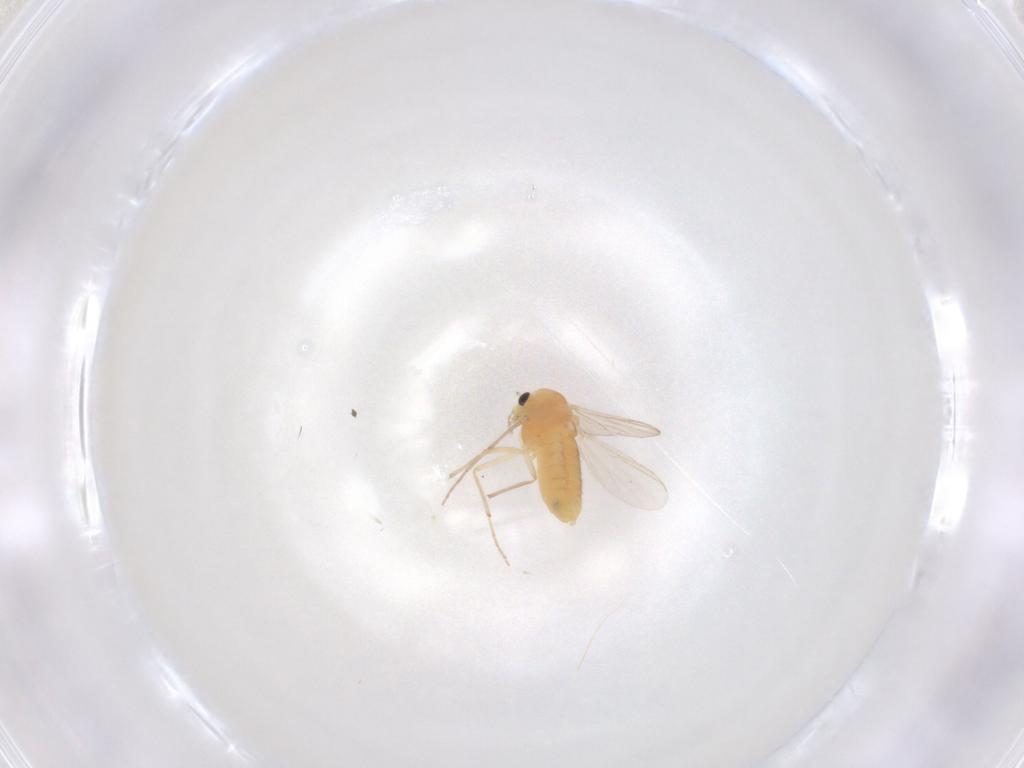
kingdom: Animalia
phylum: Arthropoda
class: Insecta
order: Diptera
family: Chironomidae
